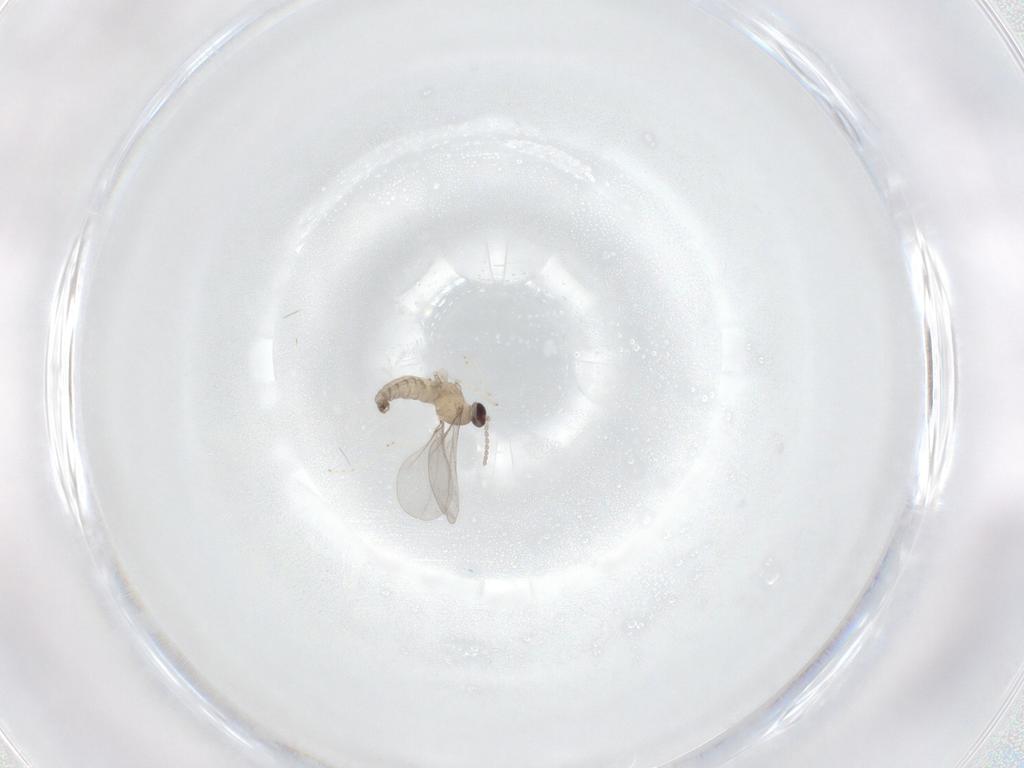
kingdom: Animalia
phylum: Arthropoda
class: Insecta
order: Diptera
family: Cecidomyiidae
